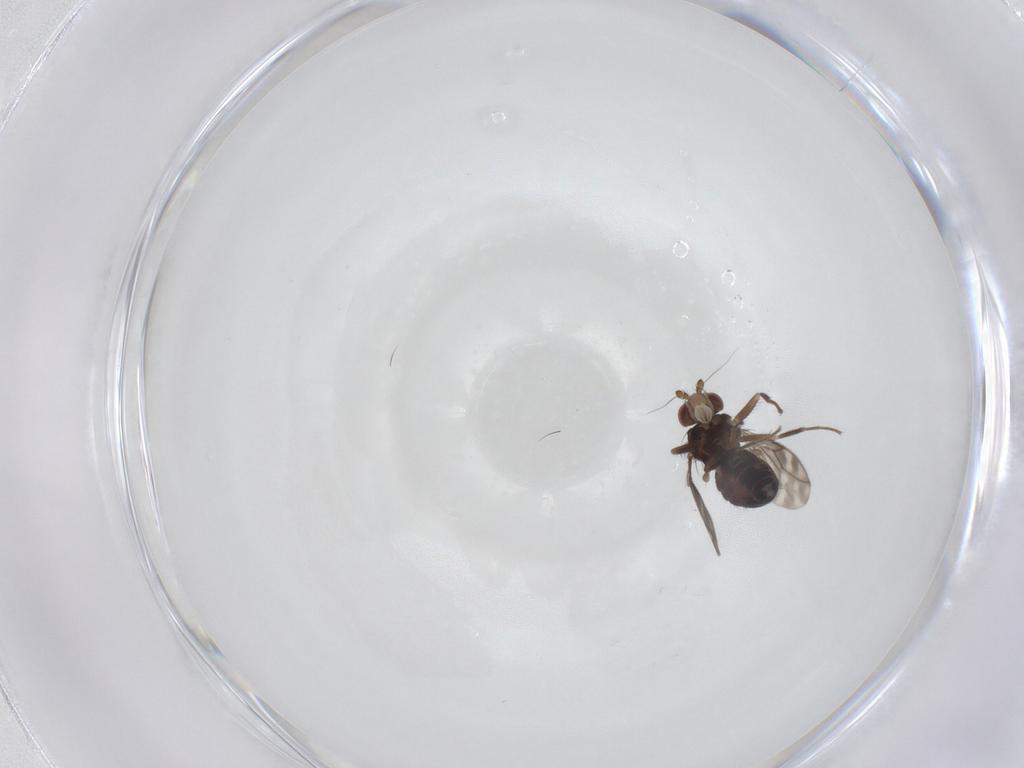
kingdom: Animalia
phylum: Arthropoda
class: Insecta
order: Diptera
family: Sphaeroceridae
